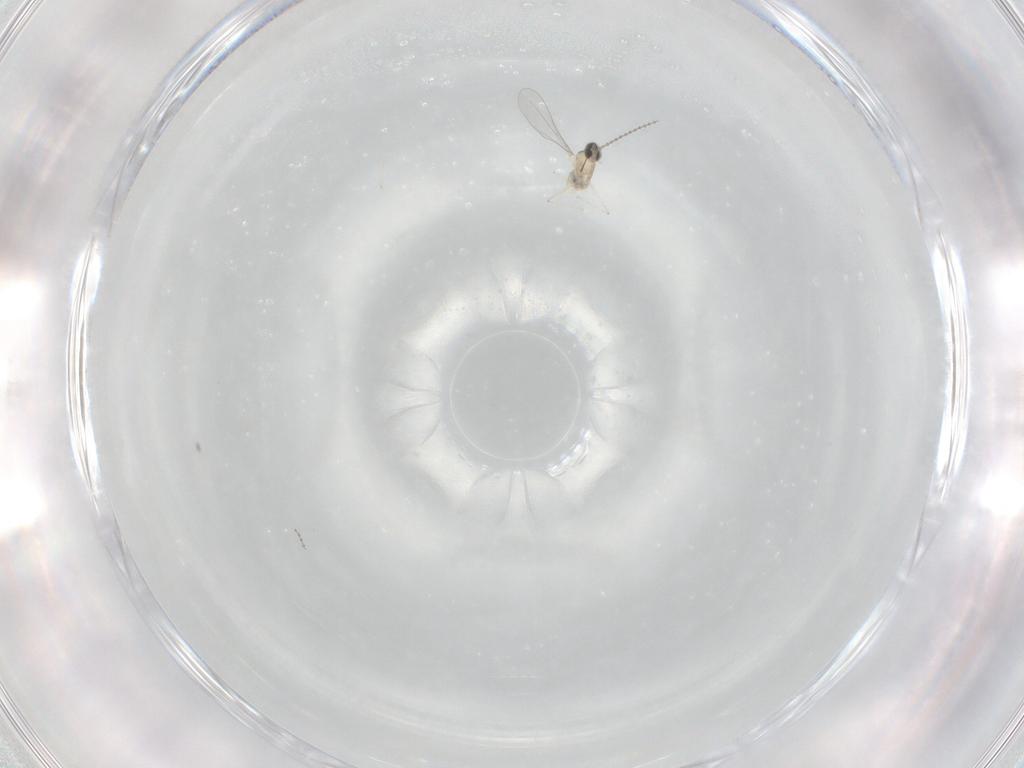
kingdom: Animalia
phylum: Arthropoda
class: Insecta
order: Diptera
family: Cecidomyiidae
